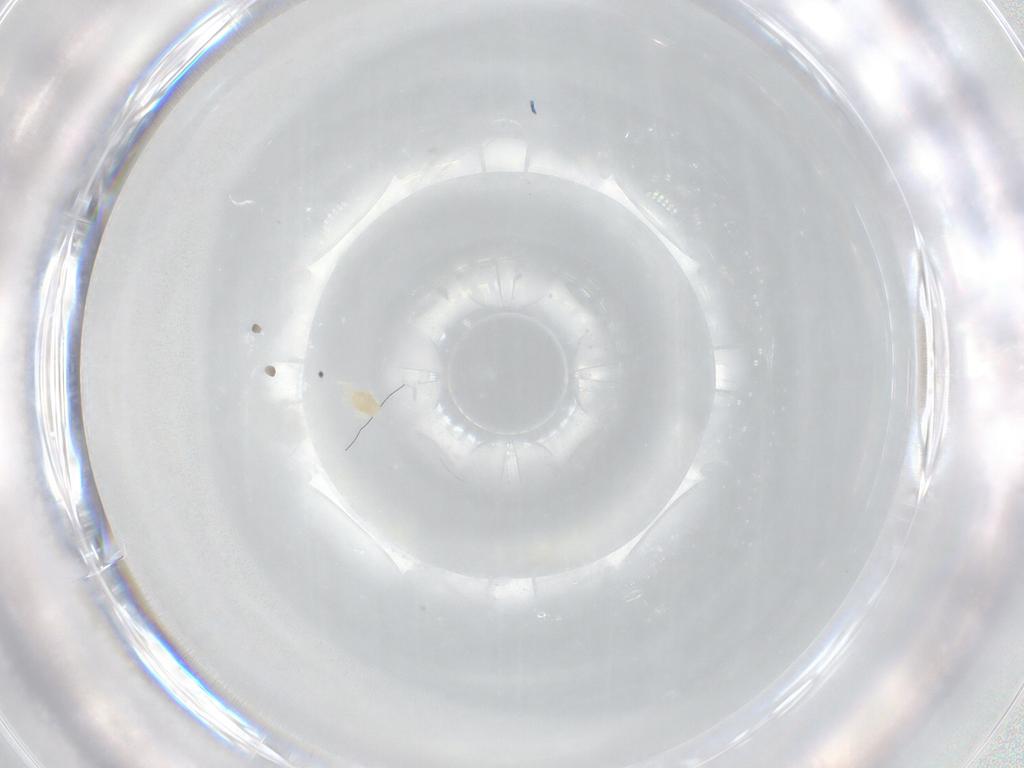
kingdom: Animalia
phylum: Arthropoda
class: Arachnida
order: Trombidiformes
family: Eupodidae
